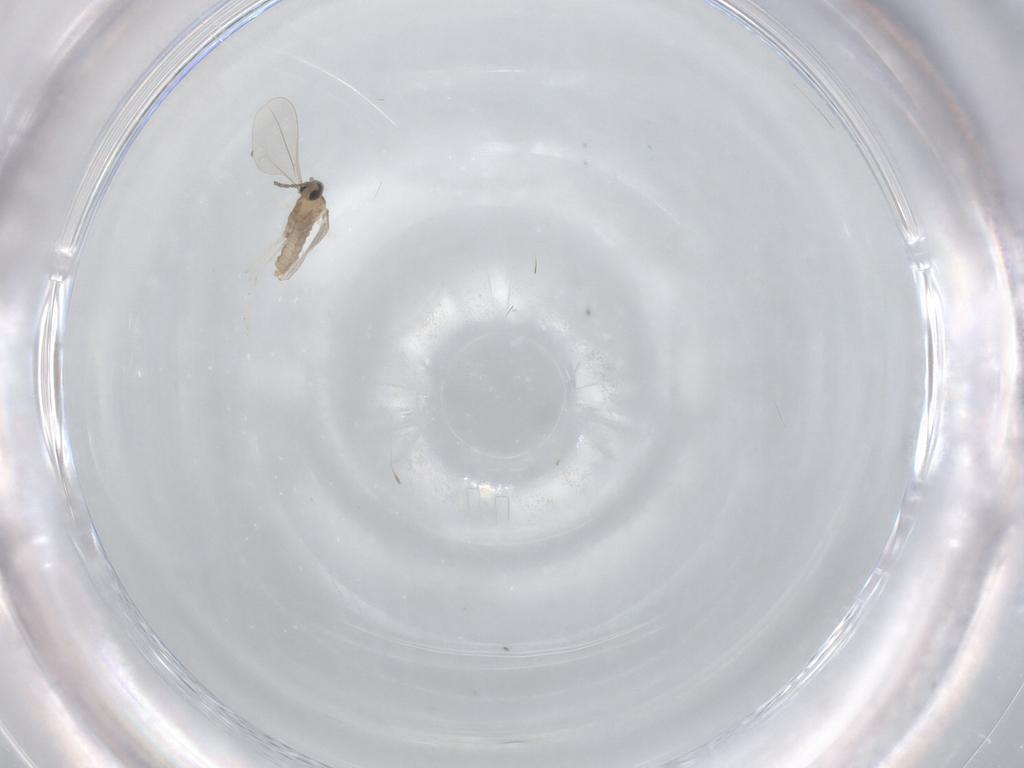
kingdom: Animalia
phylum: Arthropoda
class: Insecta
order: Diptera
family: Cecidomyiidae
